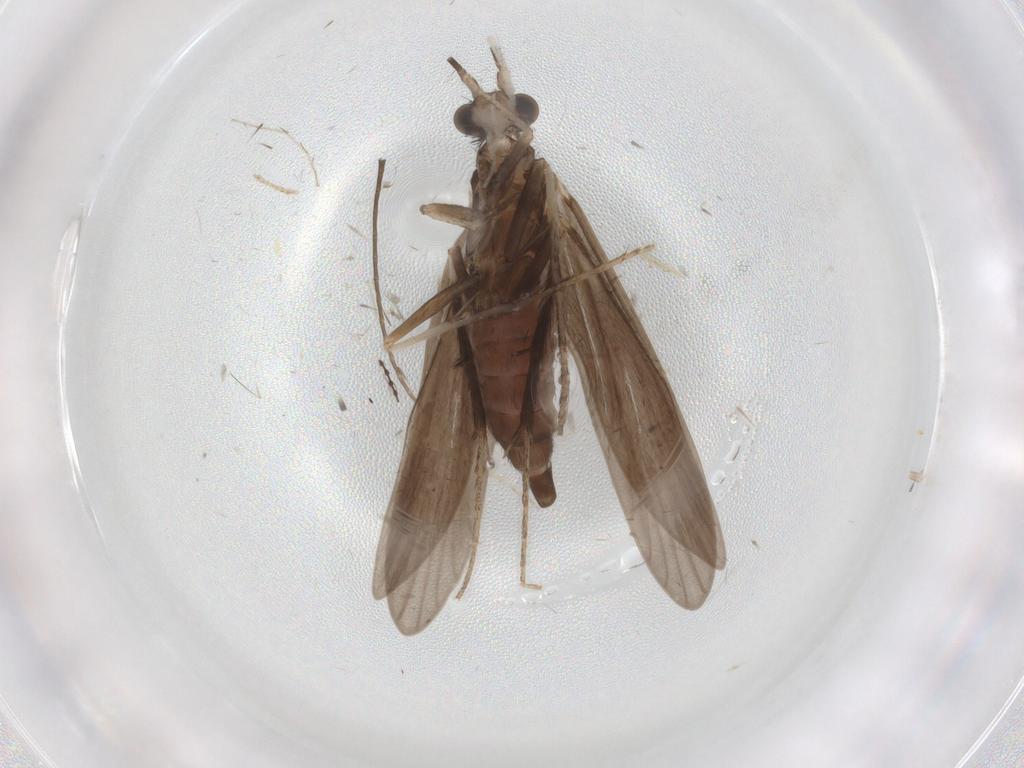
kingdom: Animalia
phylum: Arthropoda
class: Insecta
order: Trichoptera
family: Xiphocentronidae
